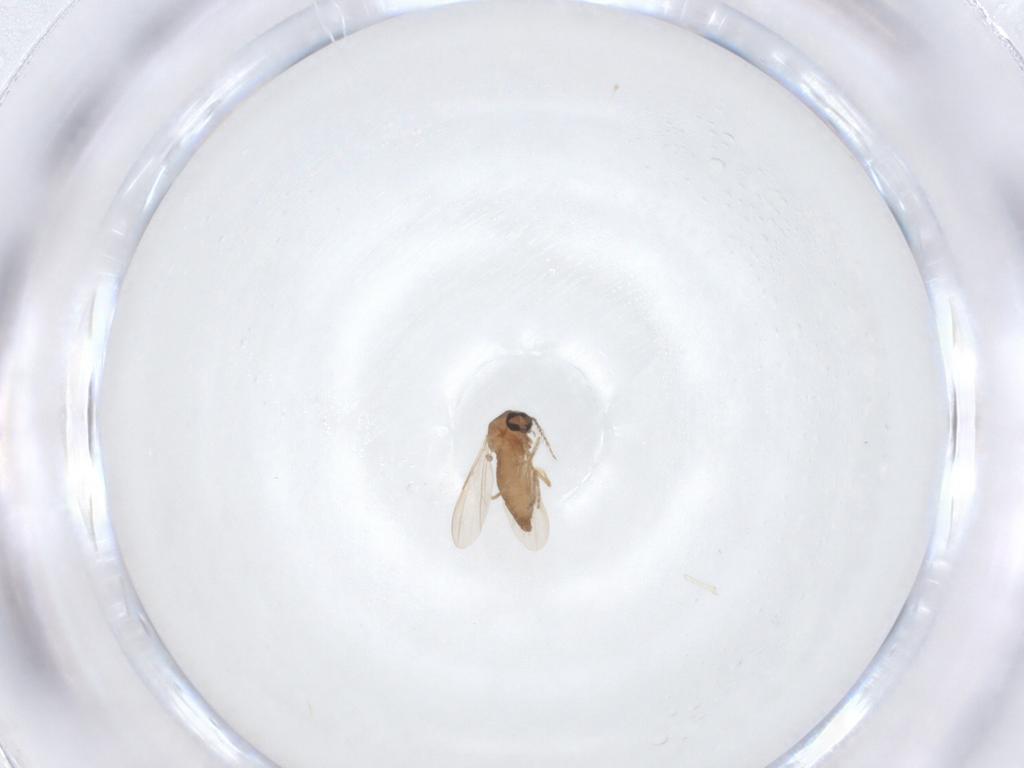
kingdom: Animalia
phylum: Arthropoda
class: Insecta
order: Diptera
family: Ceratopogonidae
